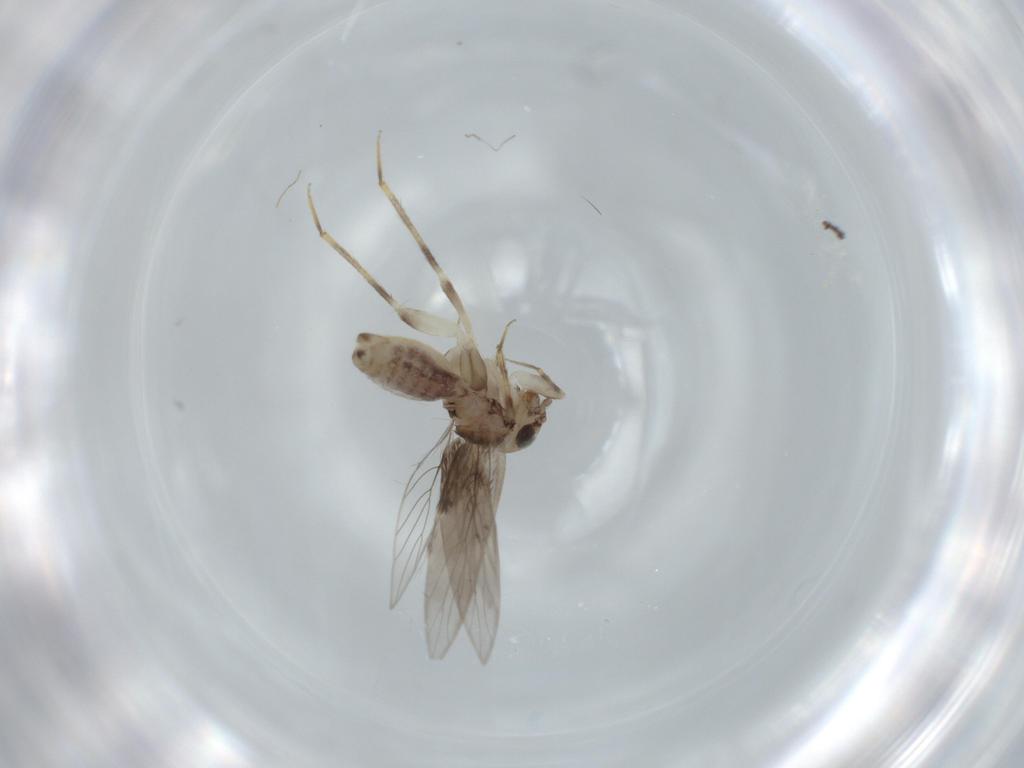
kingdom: Animalia
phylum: Arthropoda
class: Insecta
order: Psocodea
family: Lepidopsocidae
